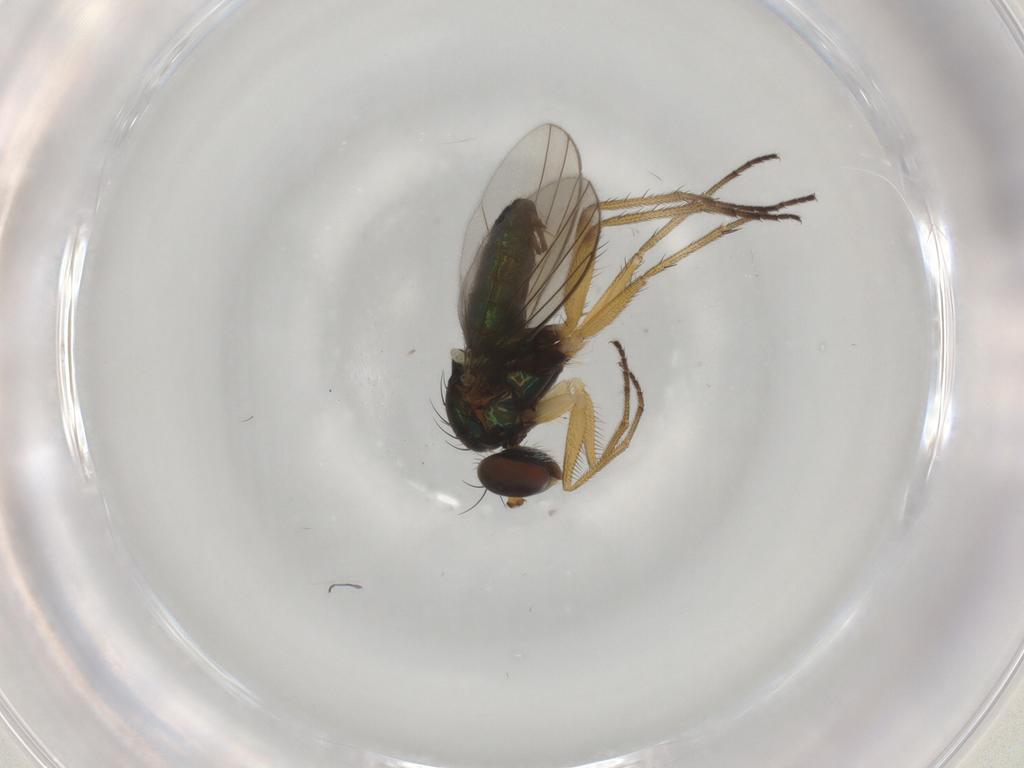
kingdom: Animalia
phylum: Arthropoda
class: Insecta
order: Diptera
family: Dolichopodidae
